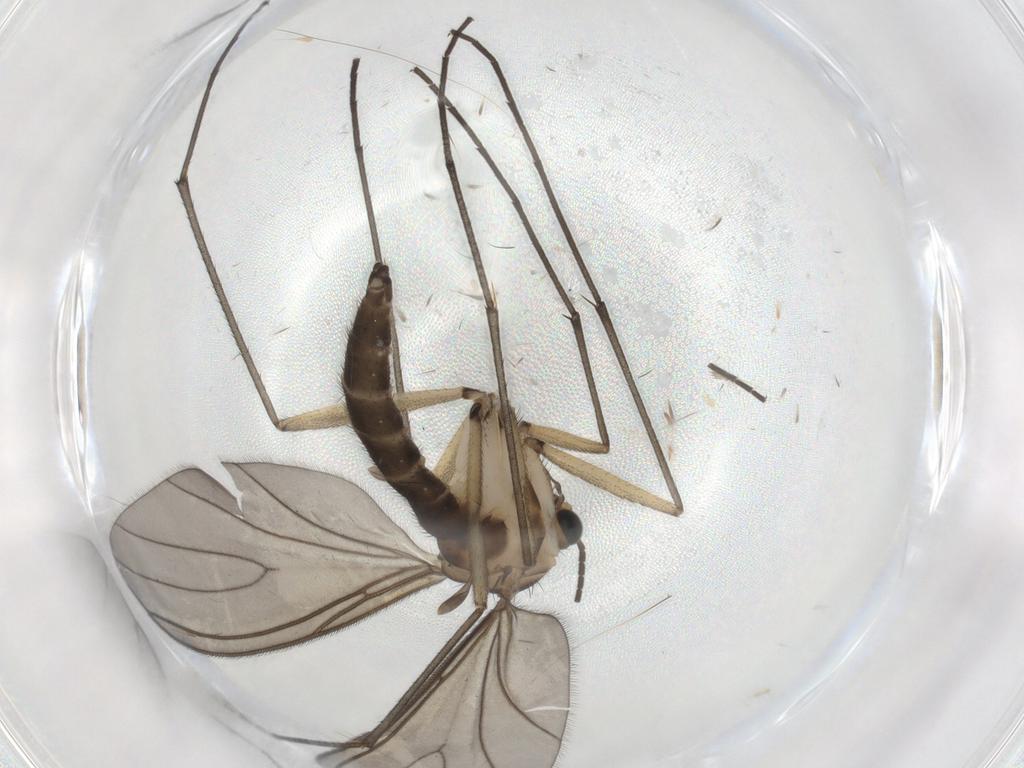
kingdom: Animalia
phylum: Arthropoda
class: Insecta
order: Diptera
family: Sciaridae
